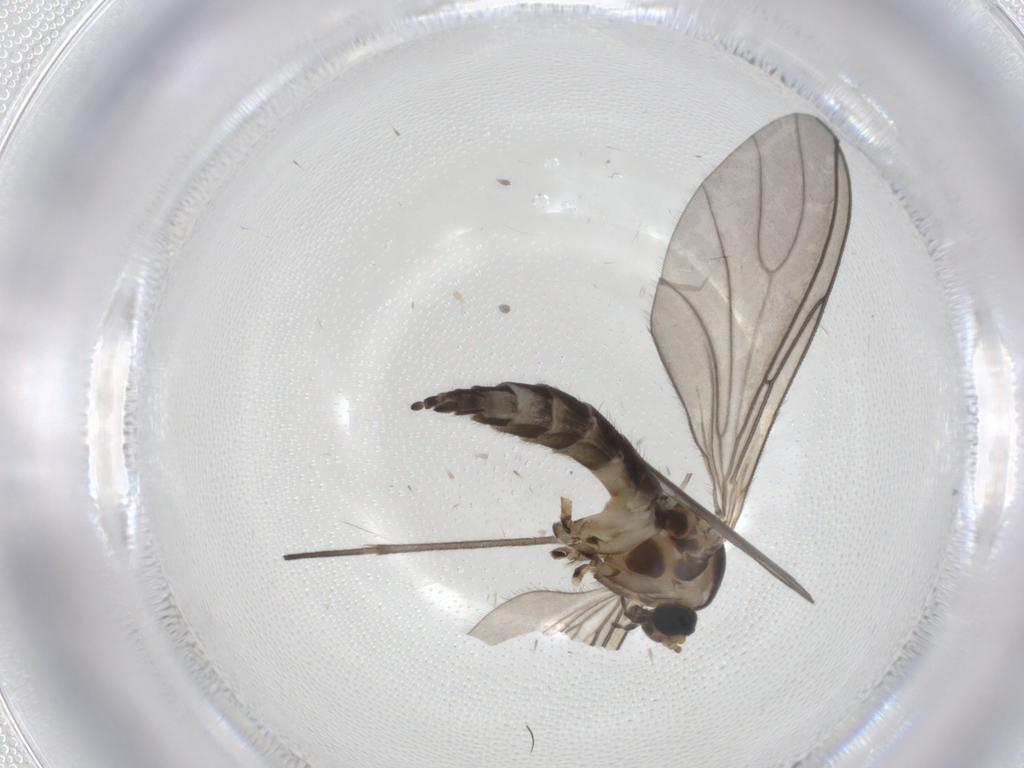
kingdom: Animalia
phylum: Arthropoda
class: Insecta
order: Diptera
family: Sciaridae
